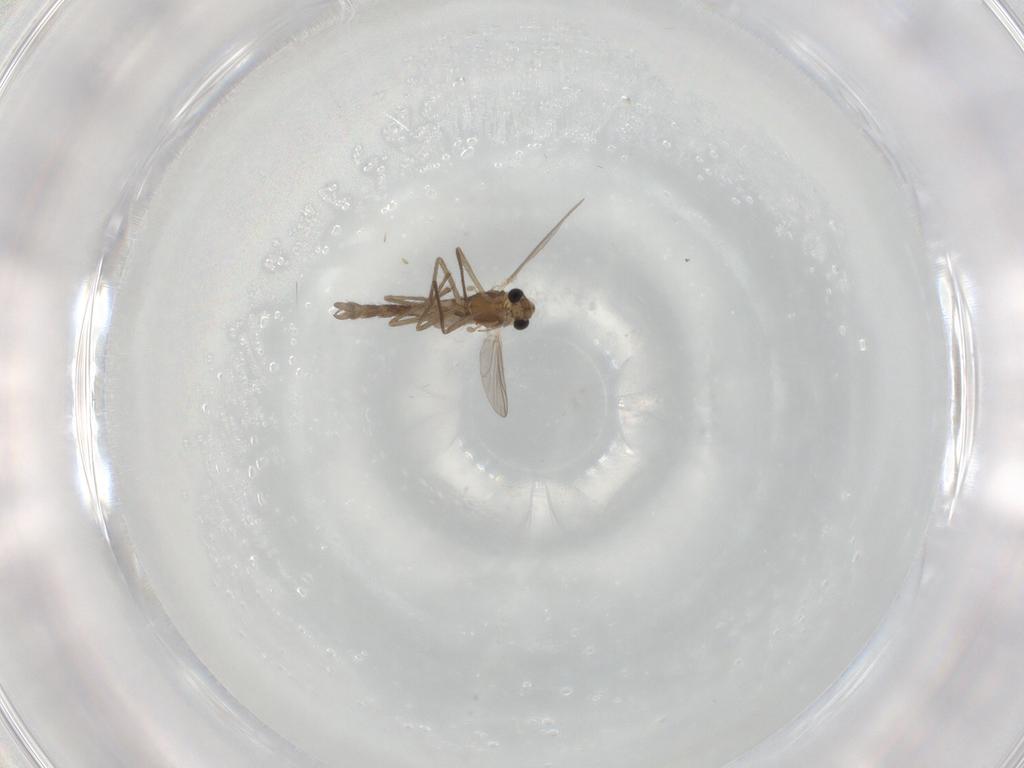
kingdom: Animalia
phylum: Arthropoda
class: Insecta
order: Diptera
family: Chironomidae
